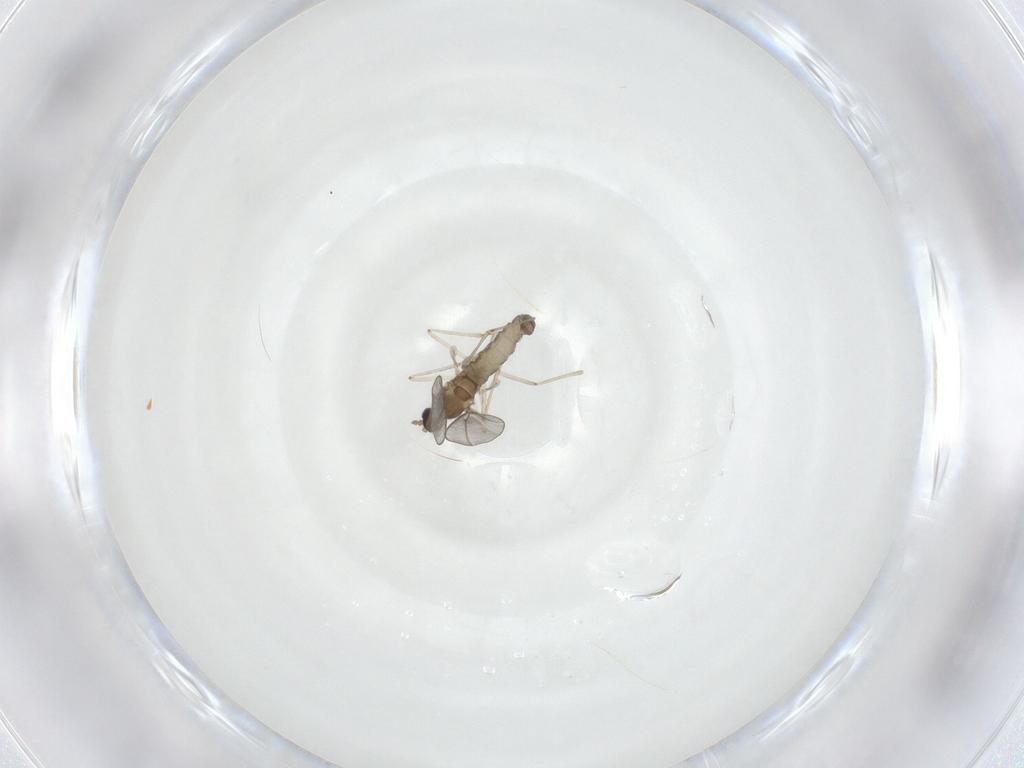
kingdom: Animalia
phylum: Arthropoda
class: Insecta
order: Diptera
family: Cecidomyiidae
